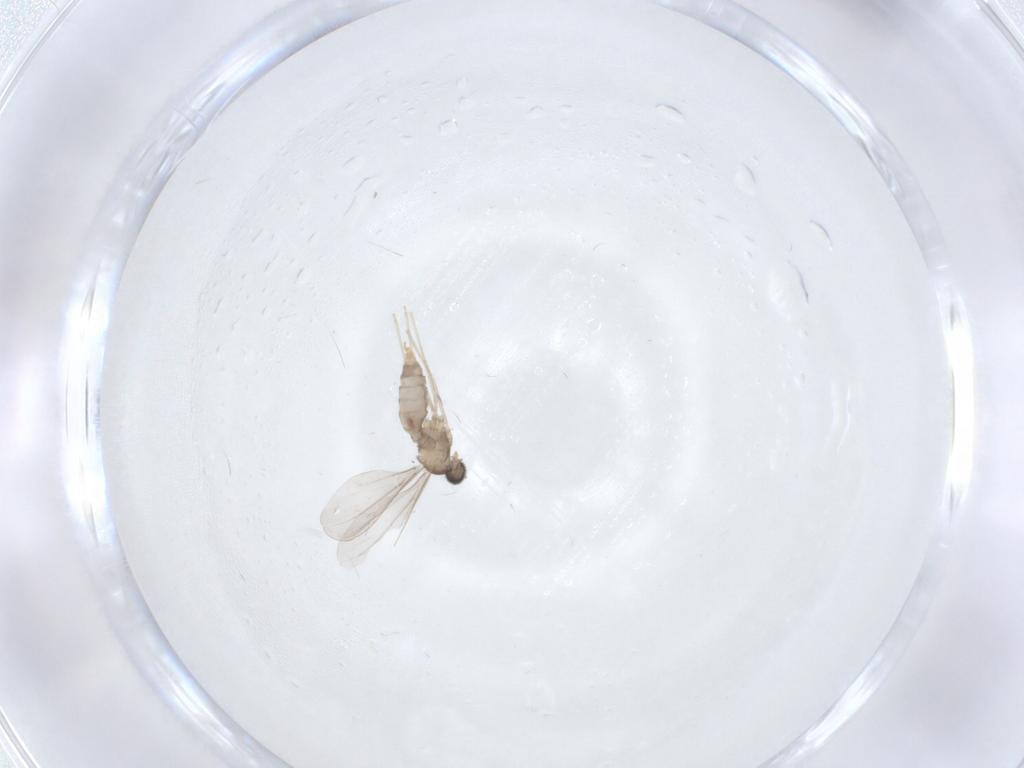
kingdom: Animalia
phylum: Arthropoda
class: Insecta
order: Diptera
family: Cecidomyiidae
